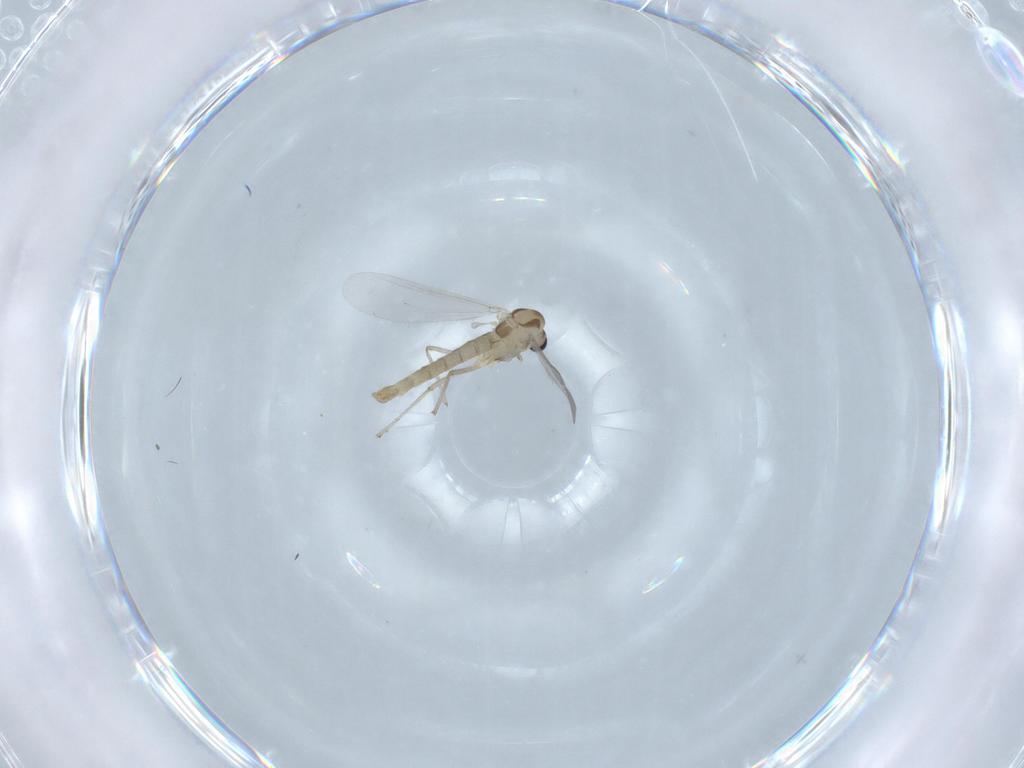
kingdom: Animalia
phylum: Arthropoda
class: Insecta
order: Diptera
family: Chironomidae
